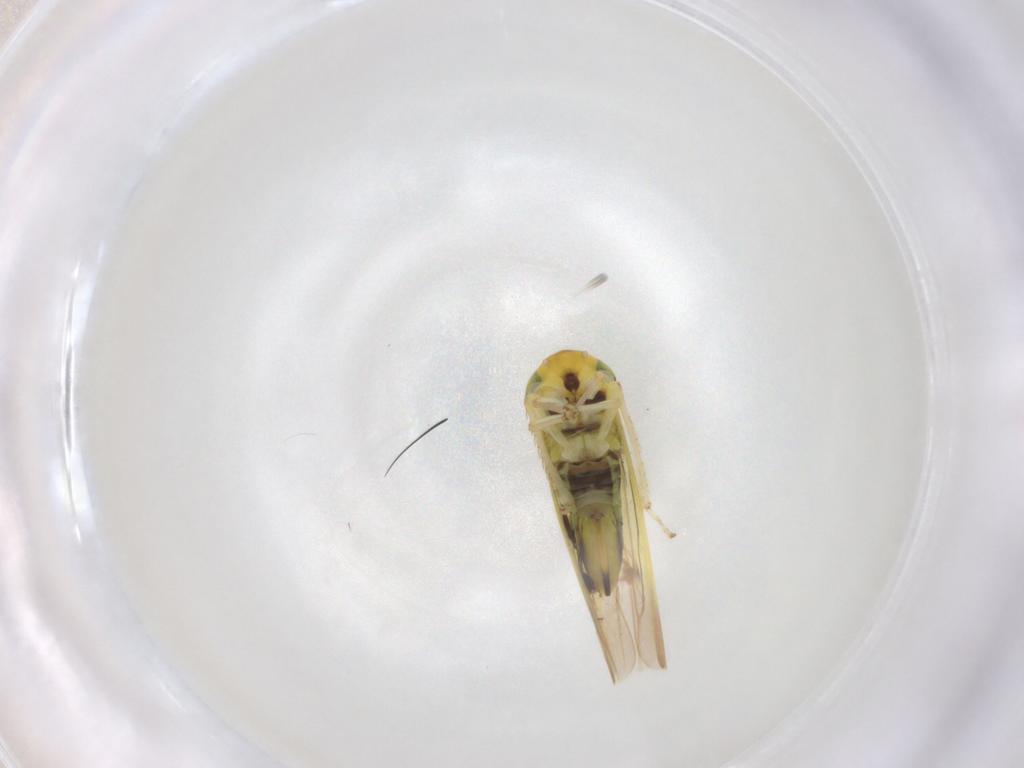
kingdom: Animalia
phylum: Arthropoda
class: Insecta
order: Hemiptera
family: Cicadellidae
